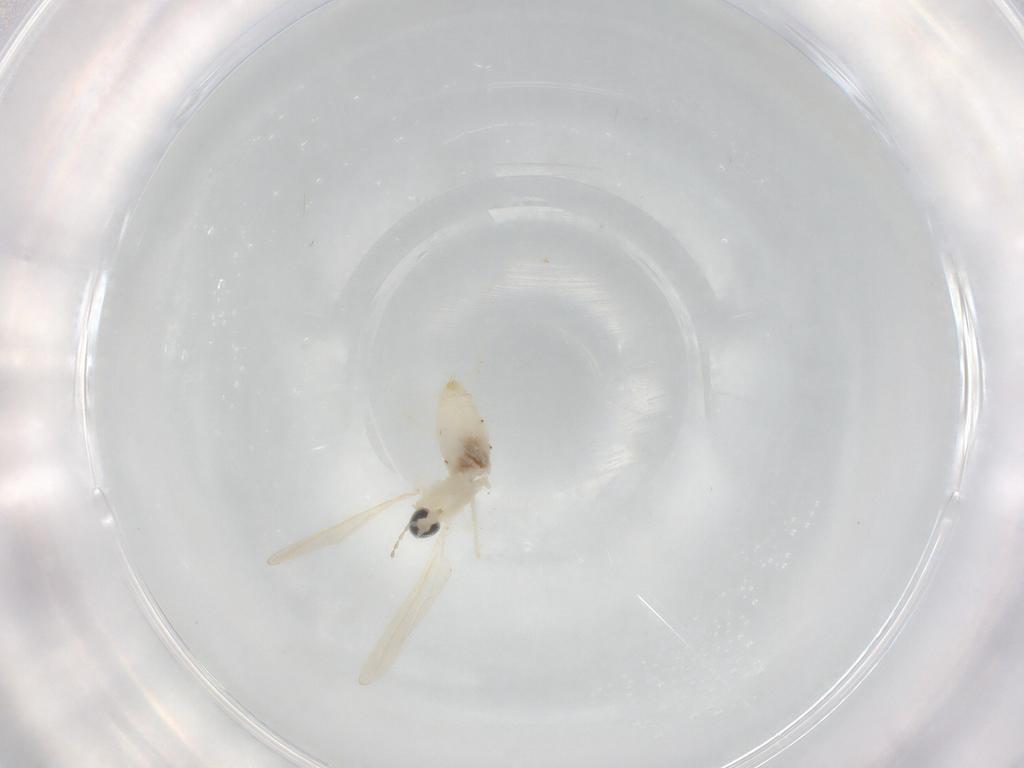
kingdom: Animalia
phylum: Arthropoda
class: Insecta
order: Diptera
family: Cecidomyiidae
